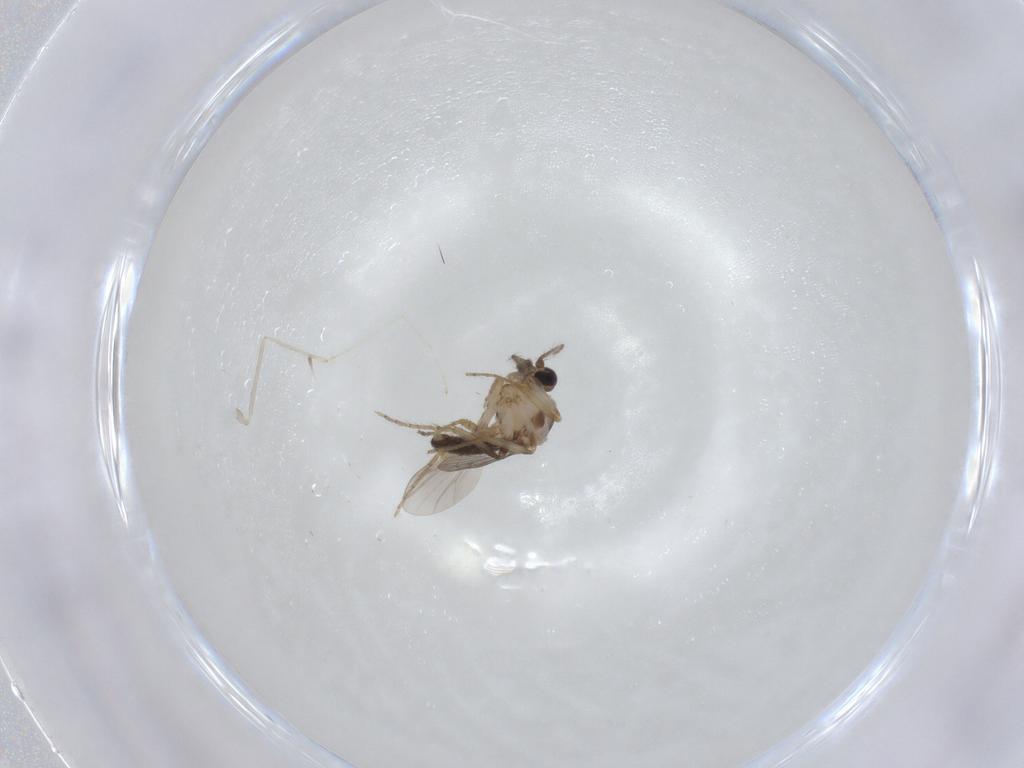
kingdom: Animalia
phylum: Arthropoda
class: Insecta
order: Diptera
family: Ceratopogonidae
